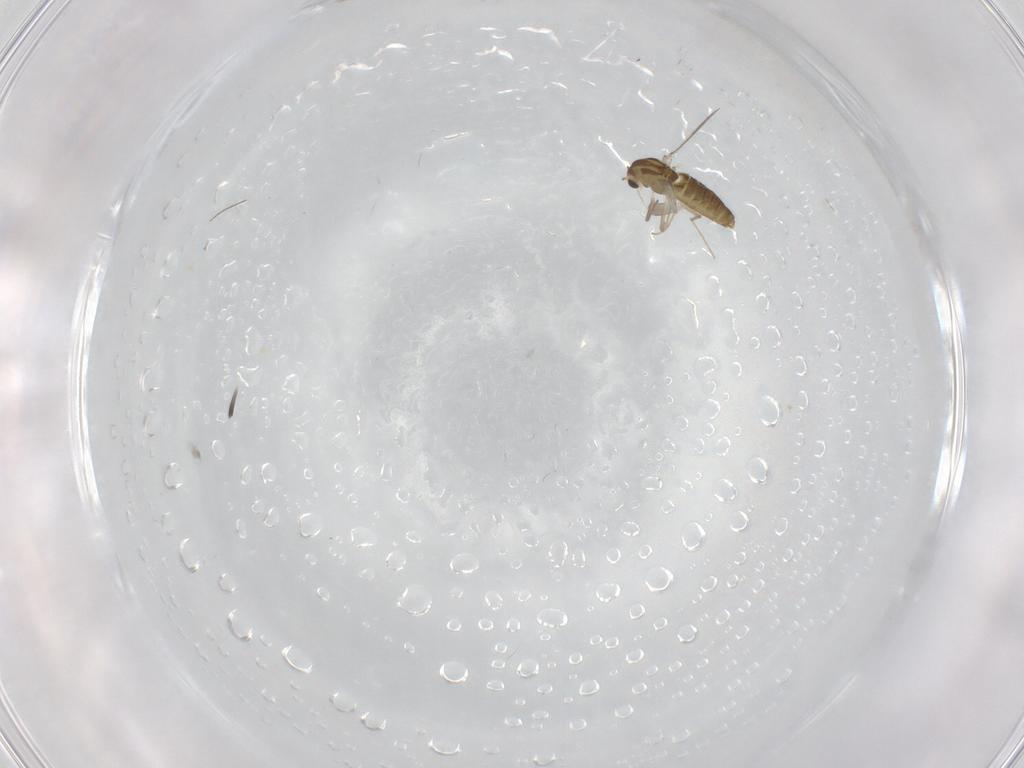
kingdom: Animalia
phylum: Arthropoda
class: Insecta
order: Diptera
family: Chironomidae
